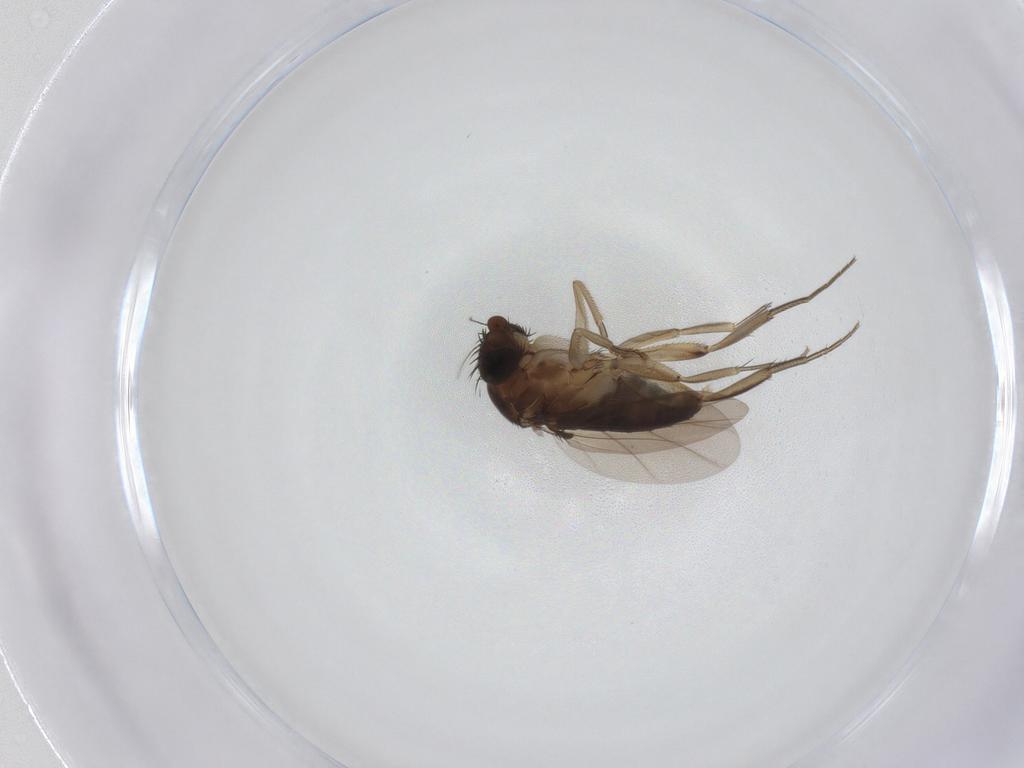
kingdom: Animalia
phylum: Arthropoda
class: Insecta
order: Diptera
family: Phoridae
